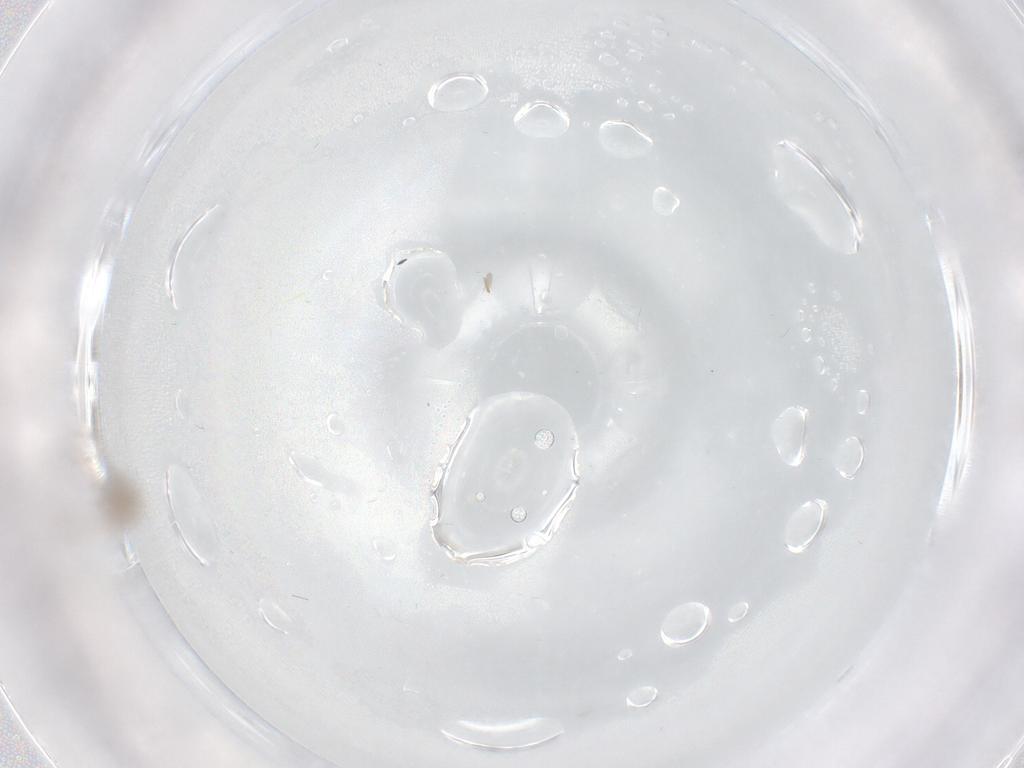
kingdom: Animalia
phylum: Arthropoda
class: Insecta
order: Diptera
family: Chironomidae
